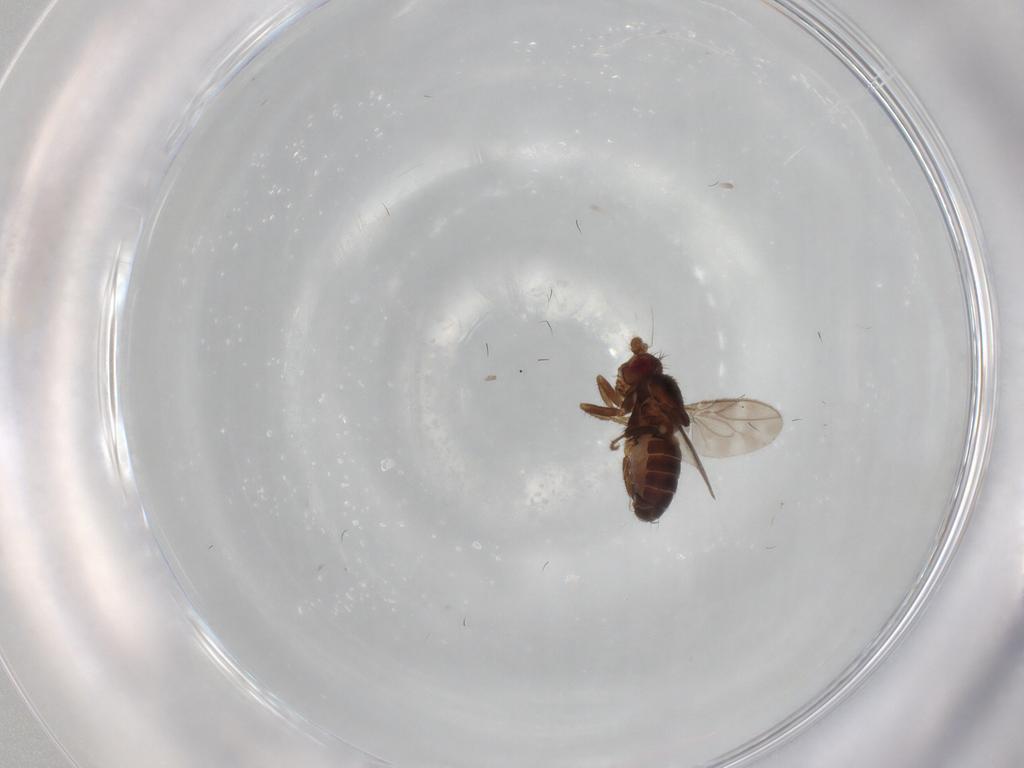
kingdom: Animalia
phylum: Arthropoda
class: Insecta
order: Diptera
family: Sphaeroceridae
